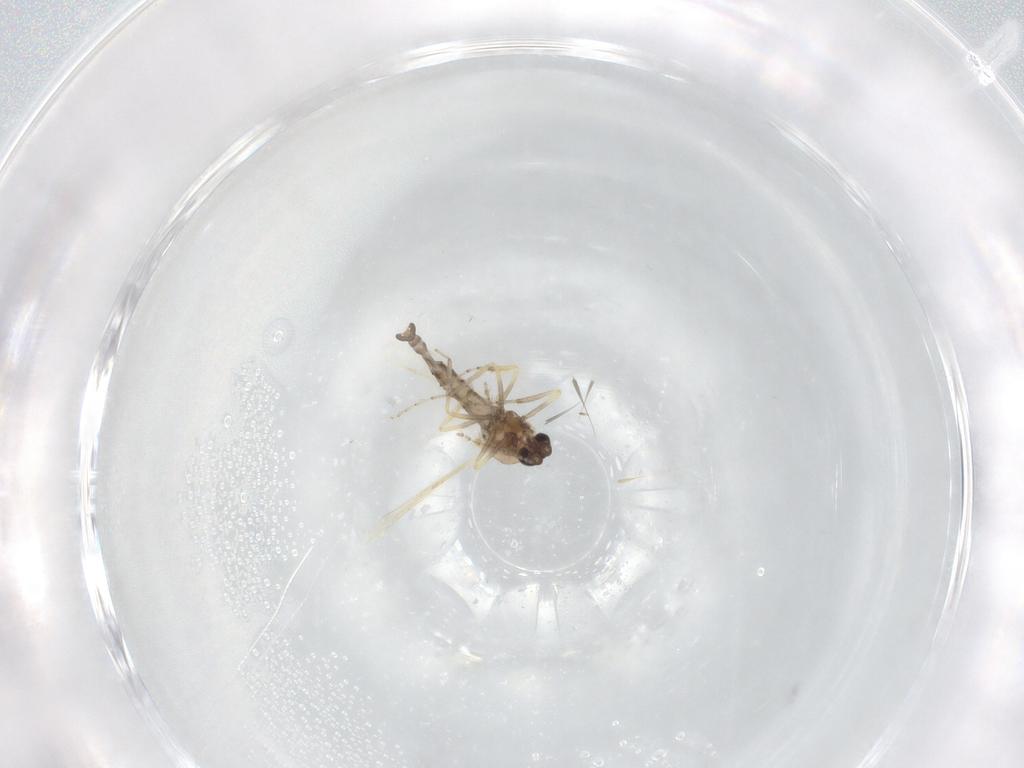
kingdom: Animalia
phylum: Arthropoda
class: Insecta
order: Diptera
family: Ceratopogonidae
